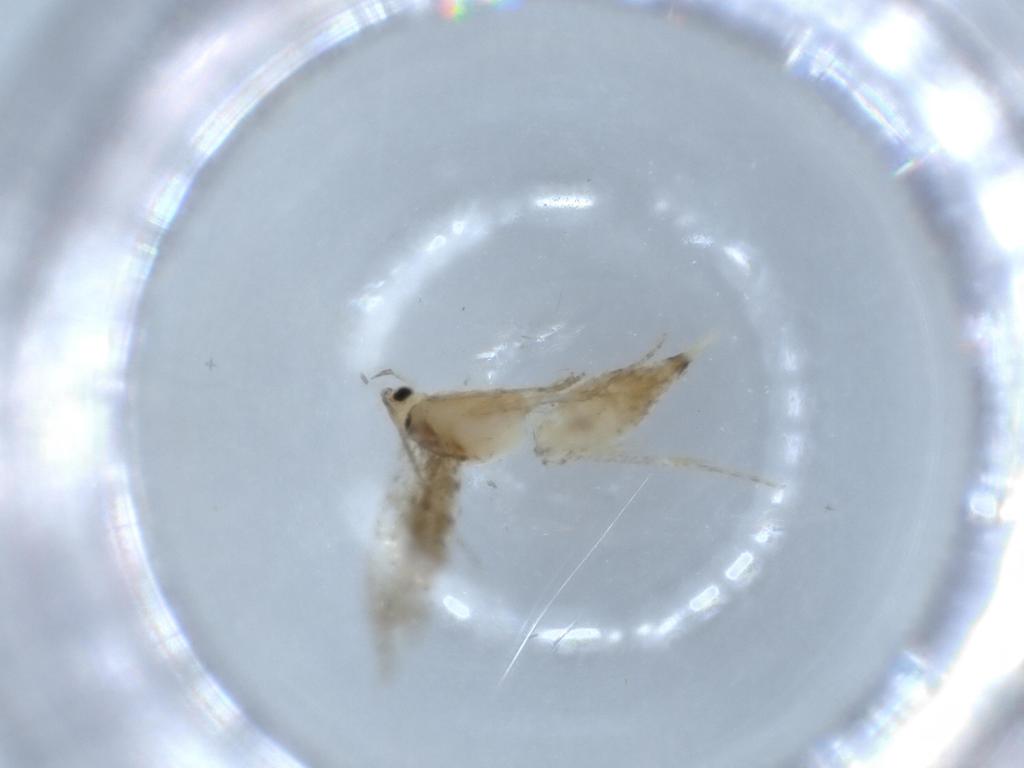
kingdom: Animalia
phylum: Arthropoda
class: Insecta
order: Lepidoptera
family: Tineidae
